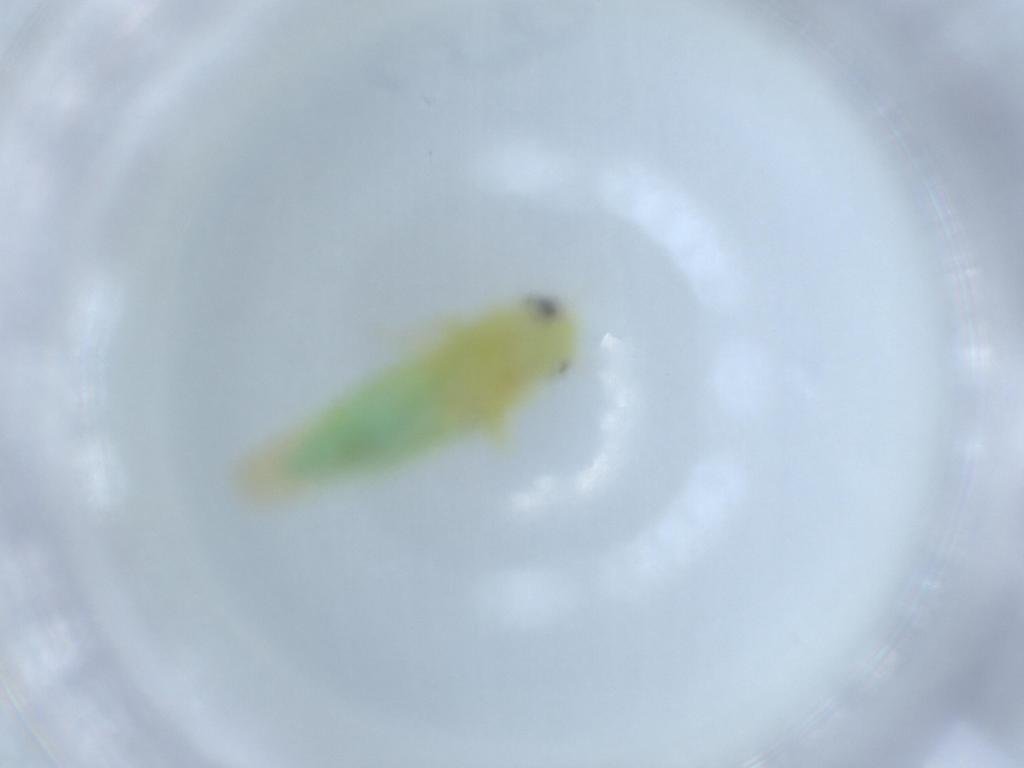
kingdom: Animalia
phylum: Arthropoda
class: Insecta
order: Hemiptera
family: Cicadellidae
